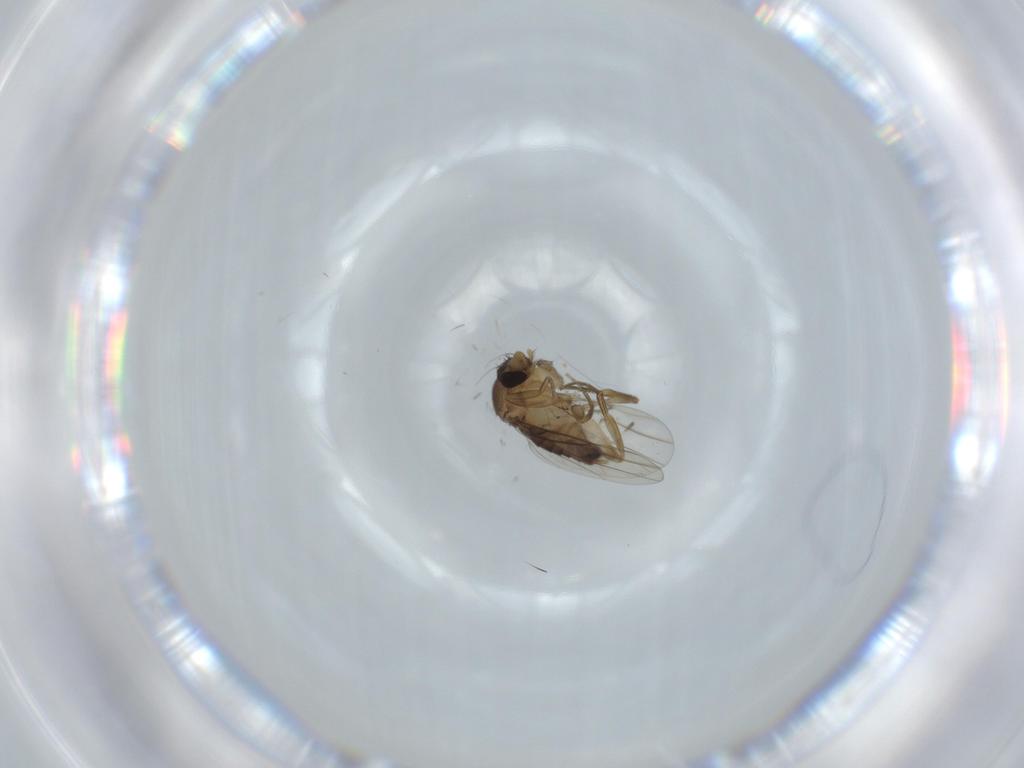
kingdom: Animalia
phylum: Arthropoda
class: Insecta
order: Diptera
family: Phoridae
